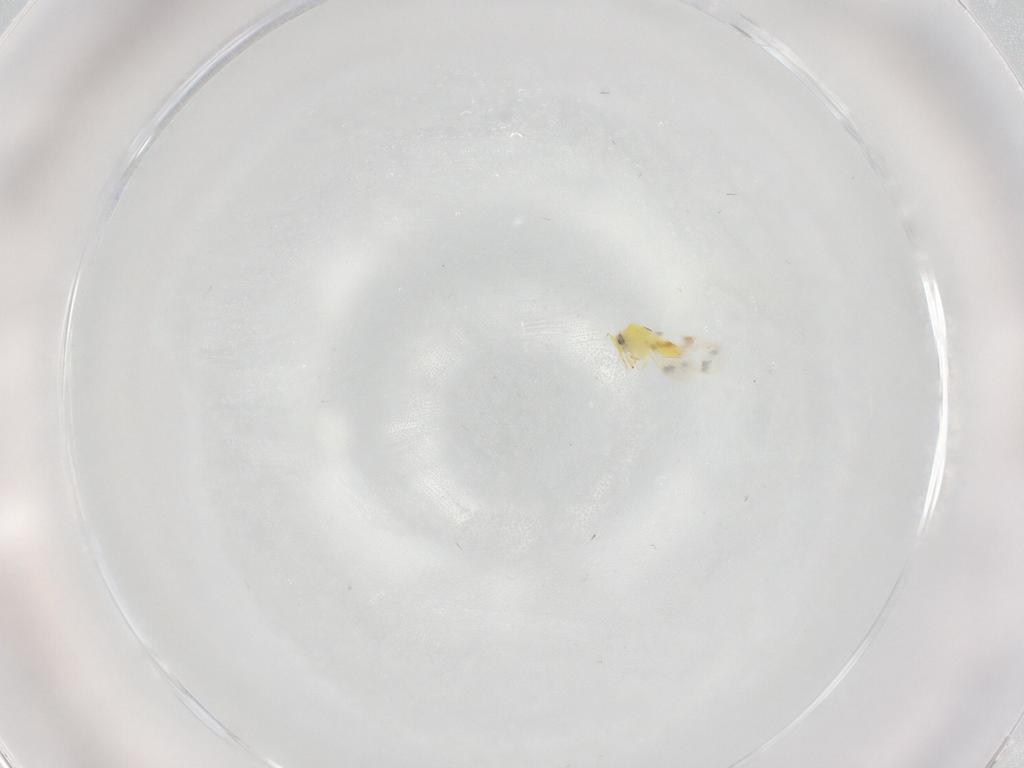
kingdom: Animalia
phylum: Arthropoda
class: Insecta
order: Hemiptera
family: Aleyrodidae
